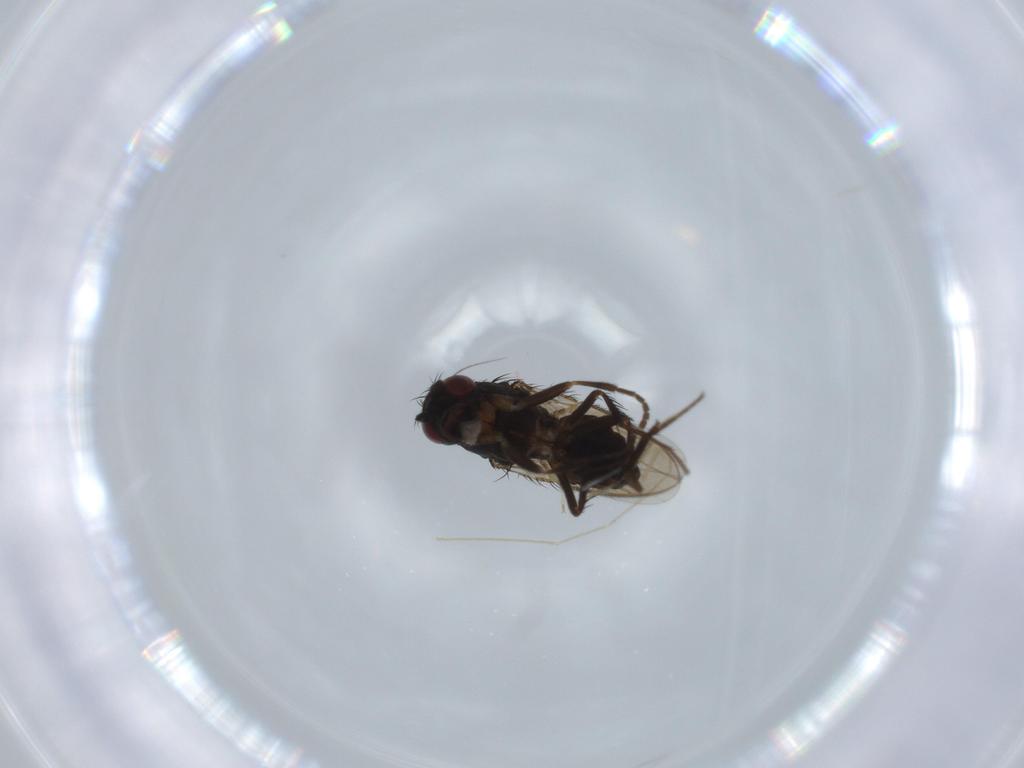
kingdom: Animalia
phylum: Arthropoda
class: Insecta
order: Diptera
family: Sphaeroceridae
